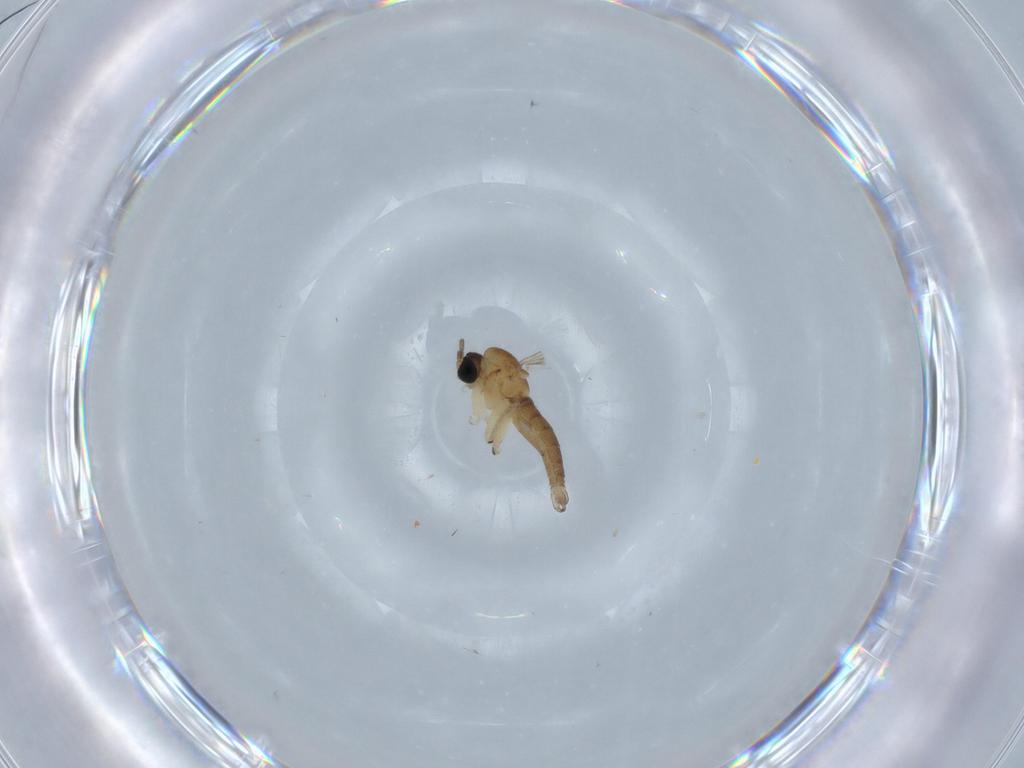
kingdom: Animalia
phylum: Arthropoda
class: Insecta
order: Diptera
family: Sciaridae
